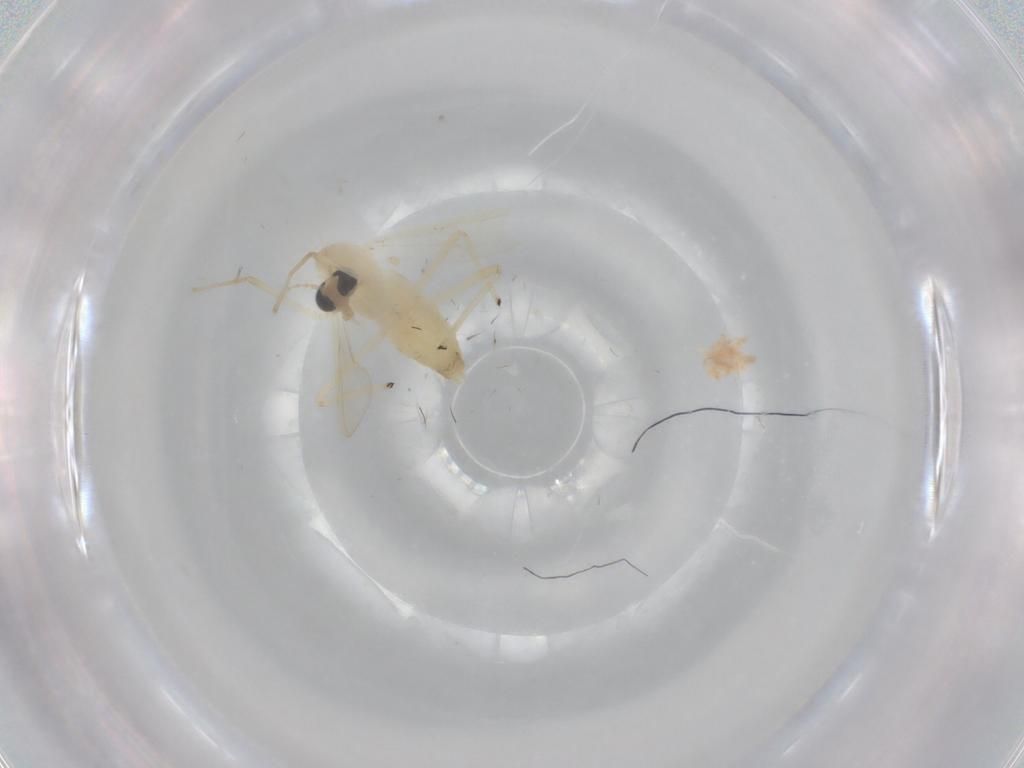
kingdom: Animalia
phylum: Arthropoda
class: Insecta
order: Diptera
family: Chironomidae
